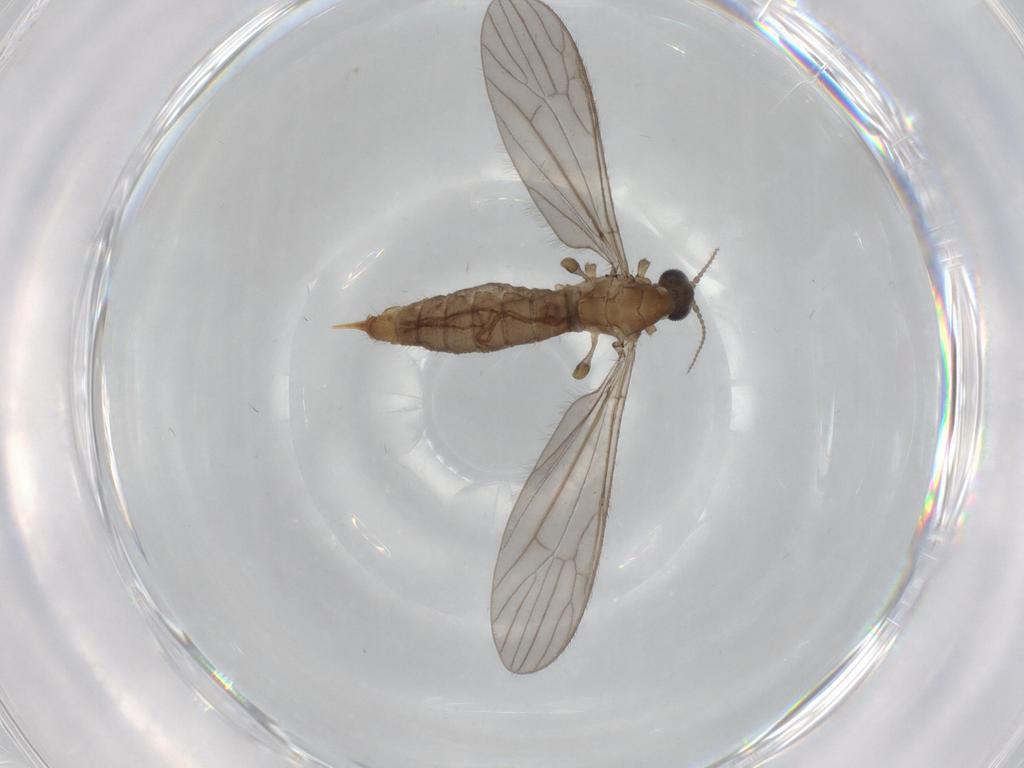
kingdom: Animalia
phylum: Arthropoda
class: Insecta
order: Diptera
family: Limoniidae
